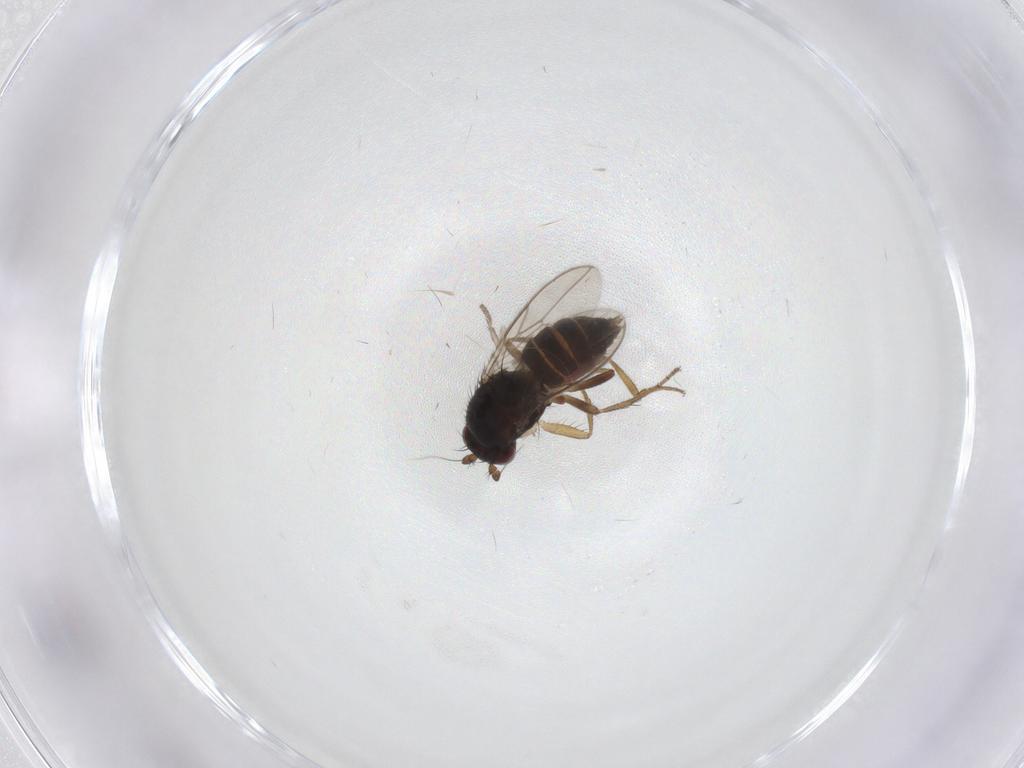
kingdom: Animalia
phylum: Arthropoda
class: Insecta
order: Diptera
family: Sphaeroceridae
